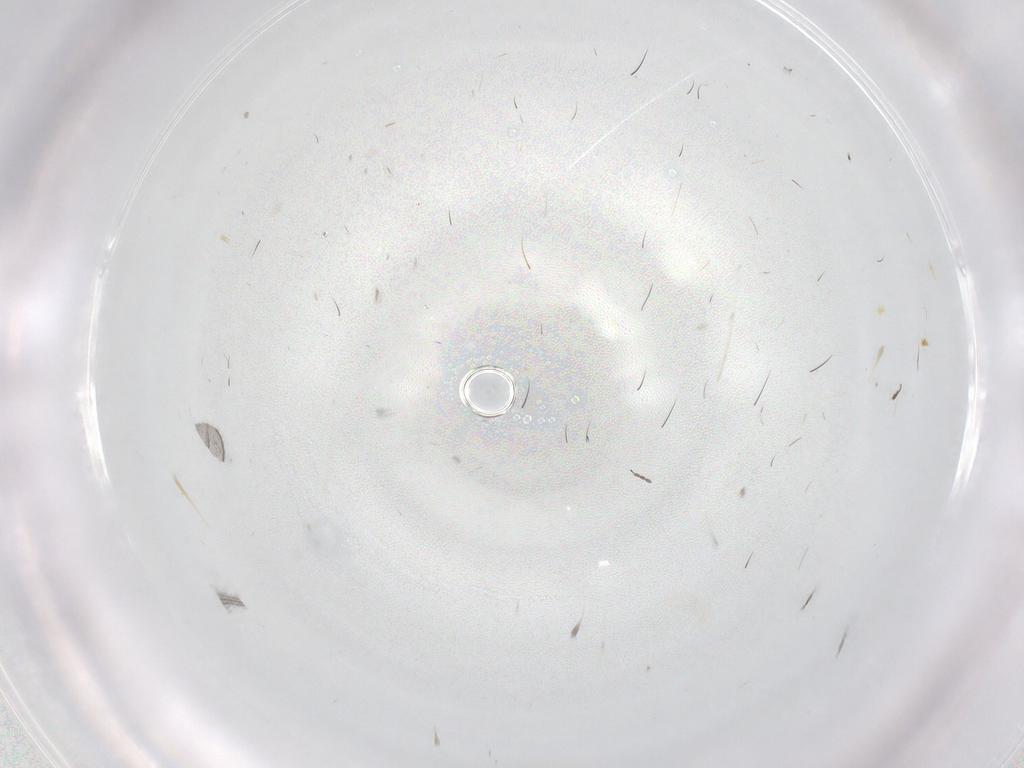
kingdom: Animalia
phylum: Arthropoda
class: Insecta
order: Diptera
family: Cecidomyiidae
